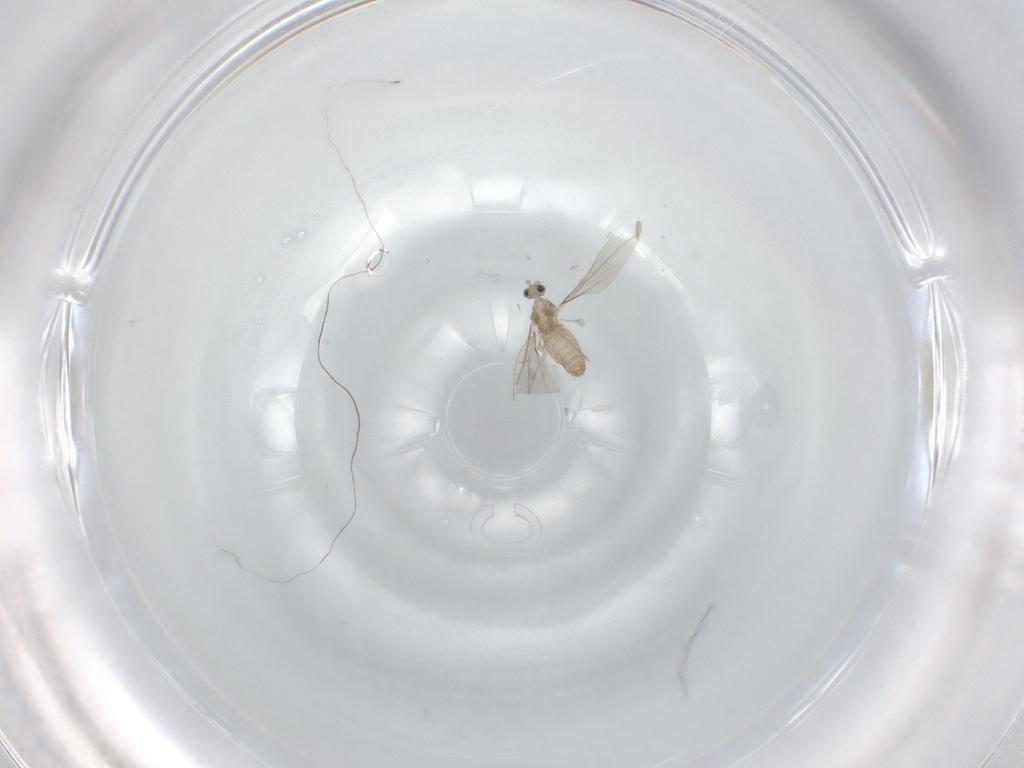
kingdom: Animalia
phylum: Arthropoda
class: Insecta
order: Diptera
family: Cecidomyiidae
